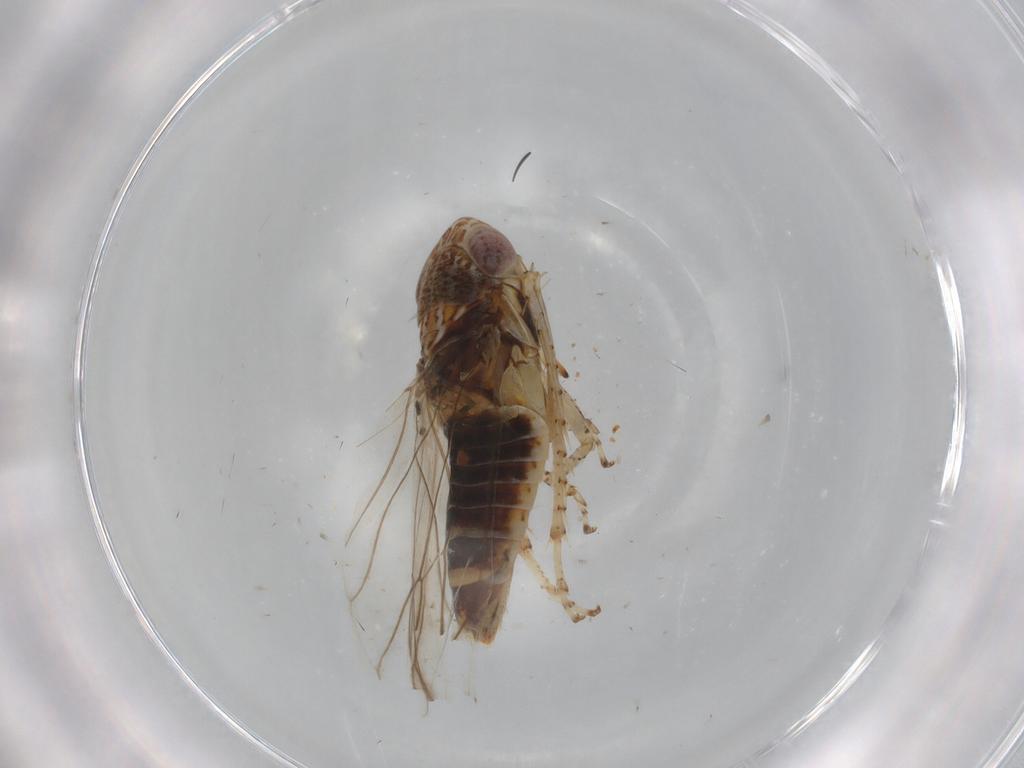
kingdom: Animalia
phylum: Arthropoda
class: Insecta
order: Hemiptera
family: Cicadellidae
